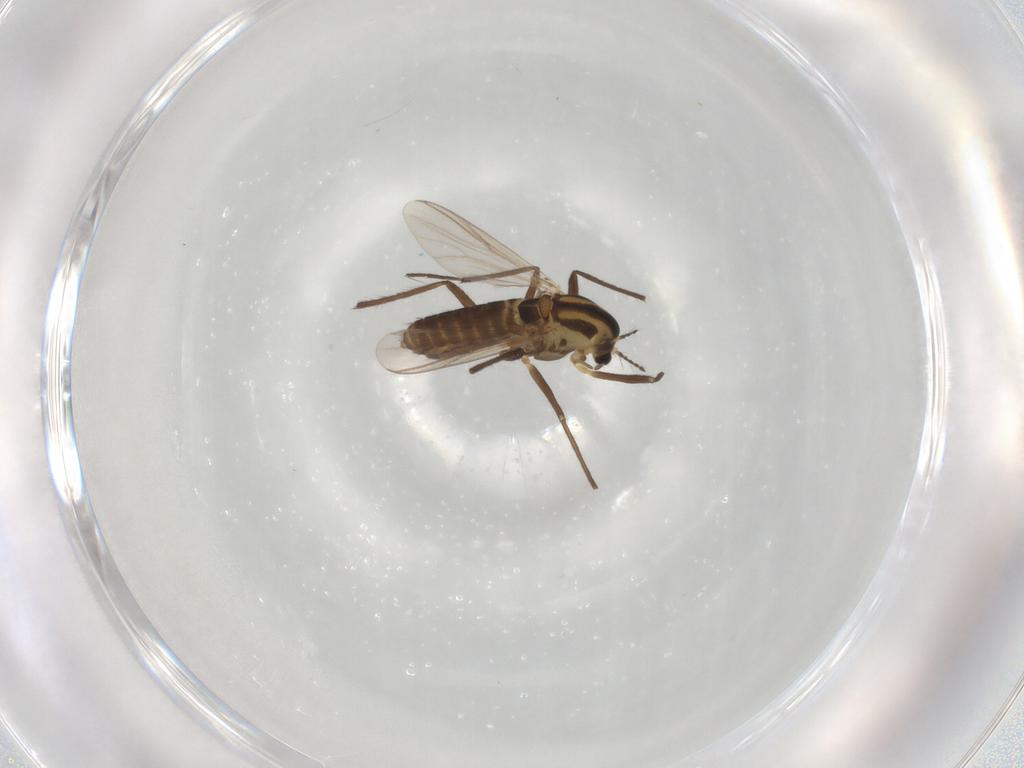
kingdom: Animalia
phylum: Arthropoda
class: Insecta
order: Diptera
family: Chironomidae
